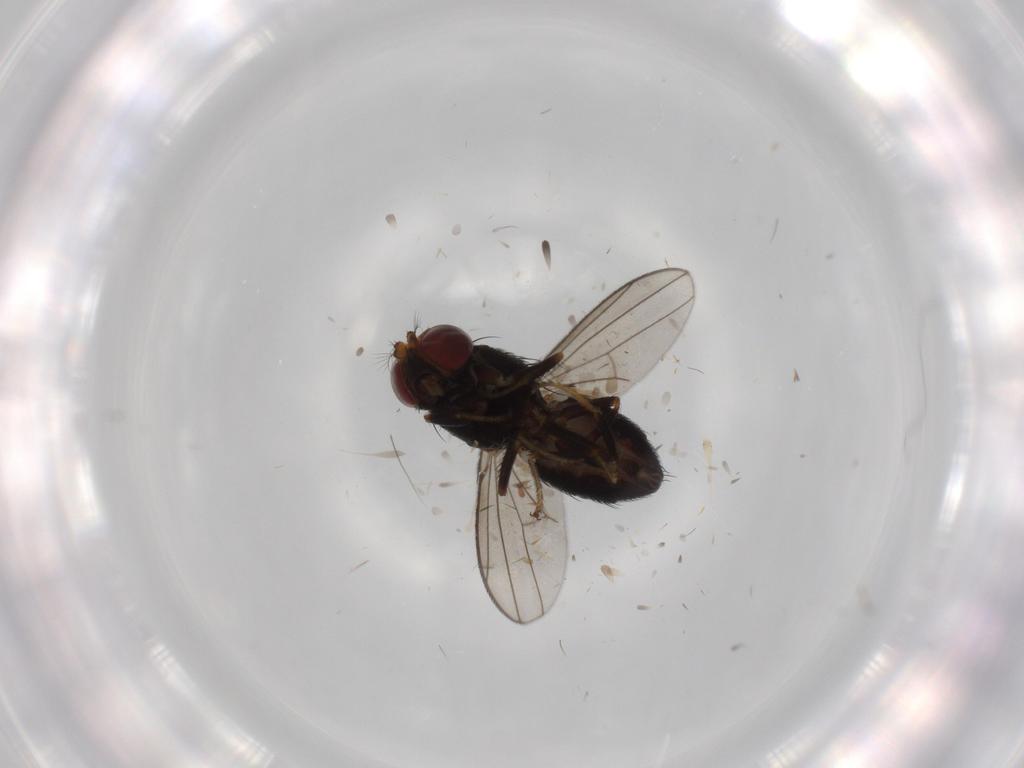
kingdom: Animalia
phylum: Arthropoda
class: Insecta
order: Diptera
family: Ephydridae
